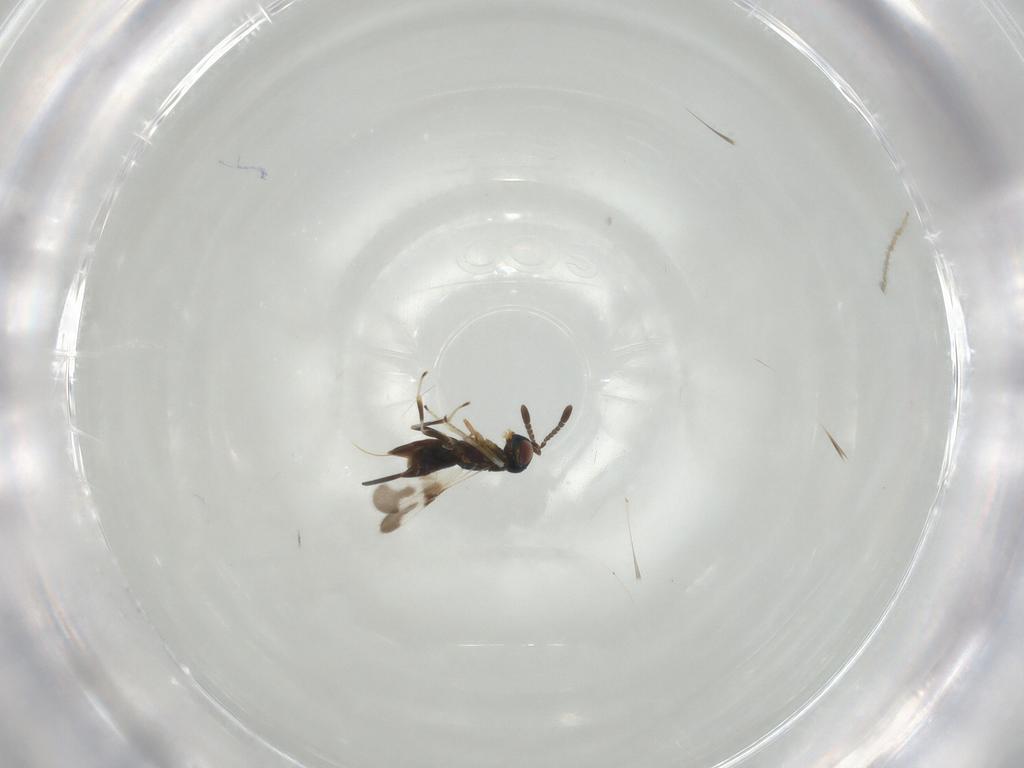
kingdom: Animalia
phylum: Arthropoda
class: Insecta
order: Hymenoptera
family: Encyrtidae
